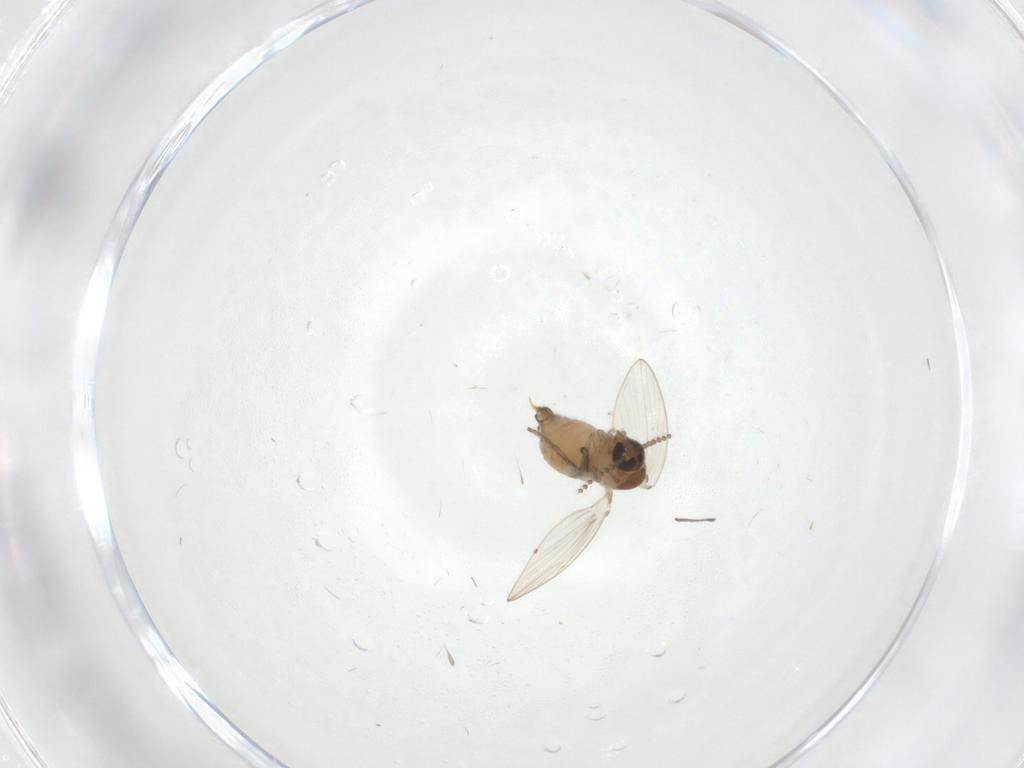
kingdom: Animalia
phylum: Arthropoda
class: Insecta
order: Diptera
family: Psychodidae
